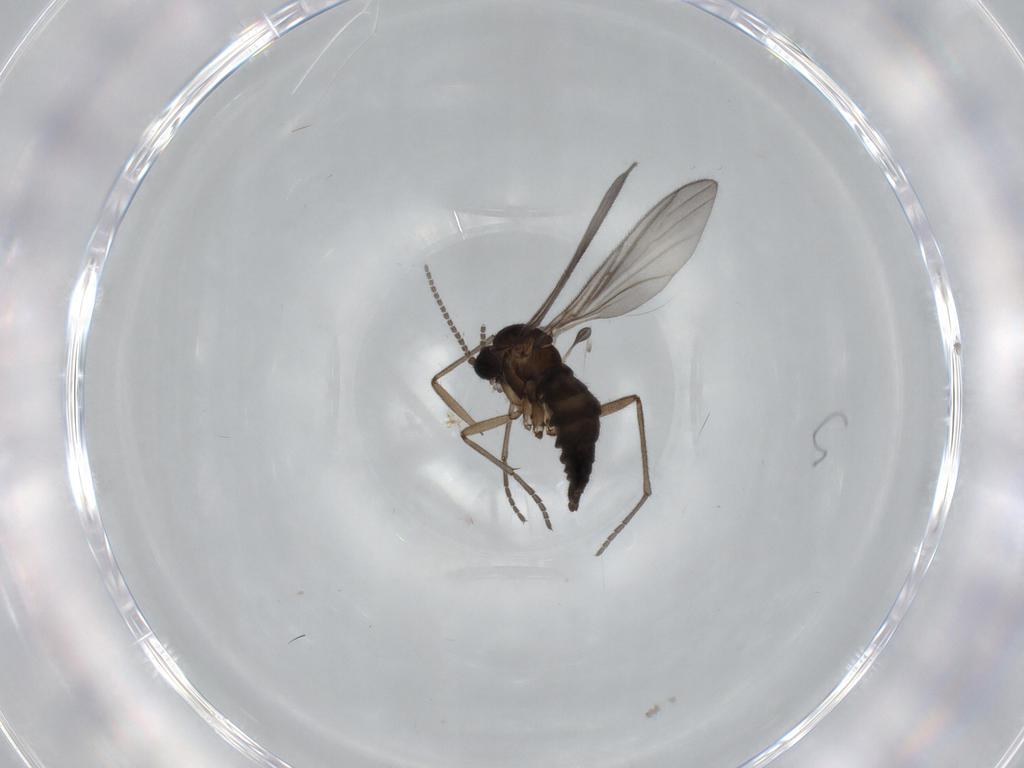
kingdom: Animalia
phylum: Arthropoda
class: Insecta
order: Diptera
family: Sciaridae
